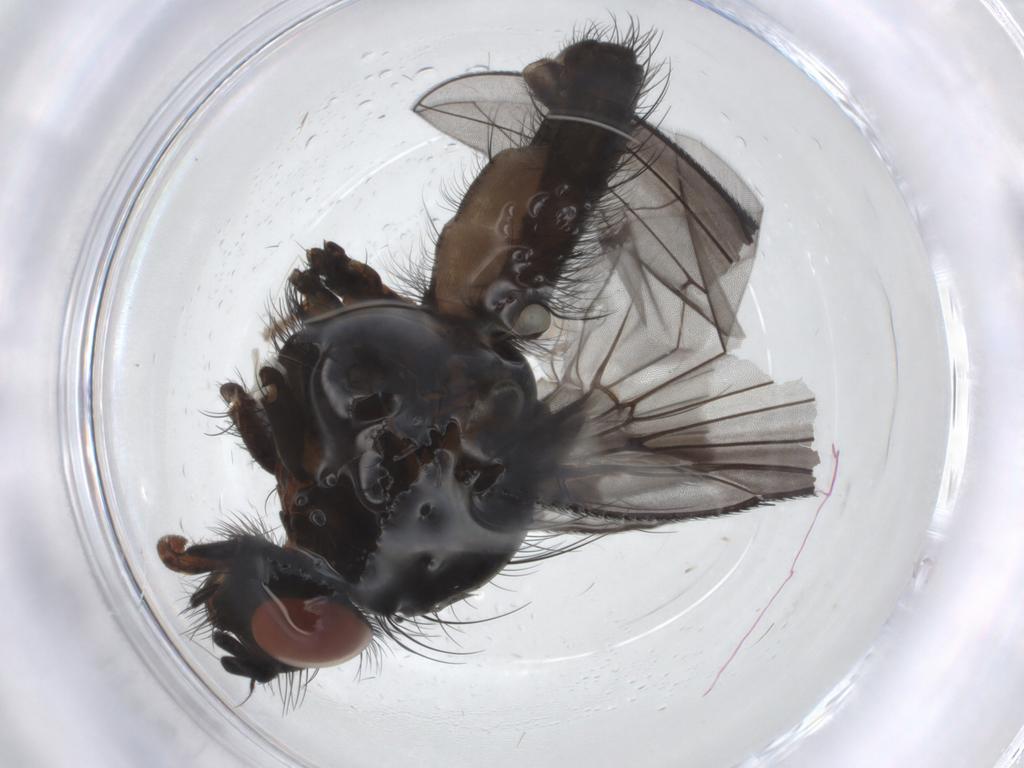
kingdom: Animalia
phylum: Arthropoda
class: Insecta
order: Diptera
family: Anthomyiidae
